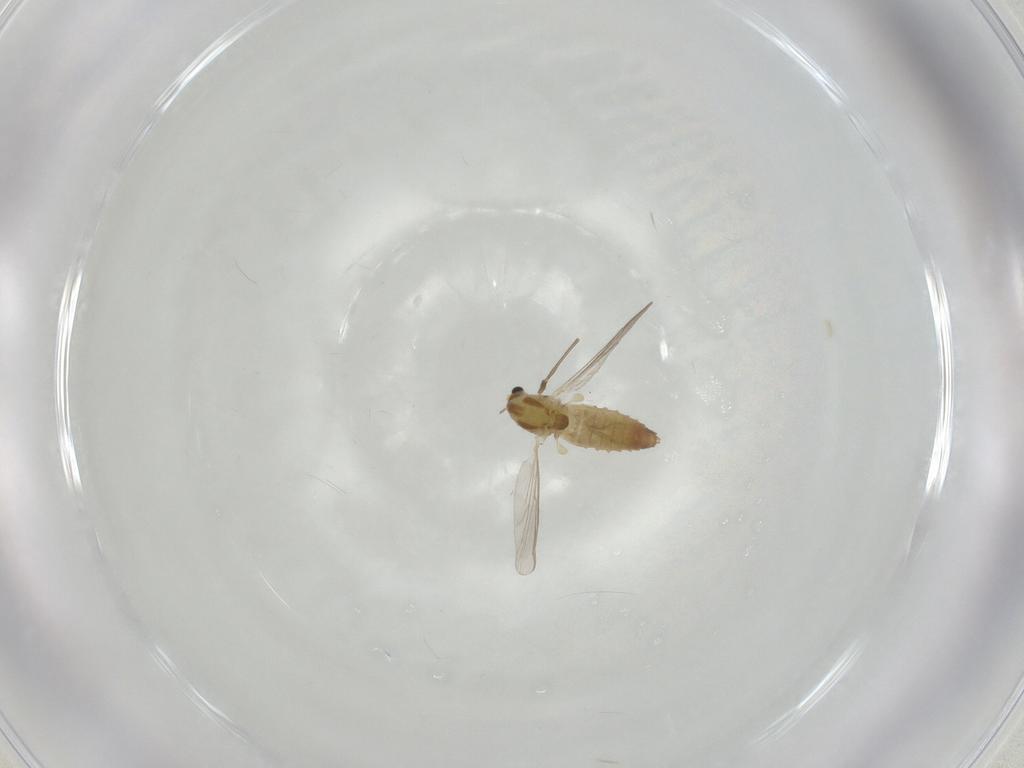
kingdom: Animalia
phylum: Arthropoda
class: Insecta
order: Diptera
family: Chironomidae
